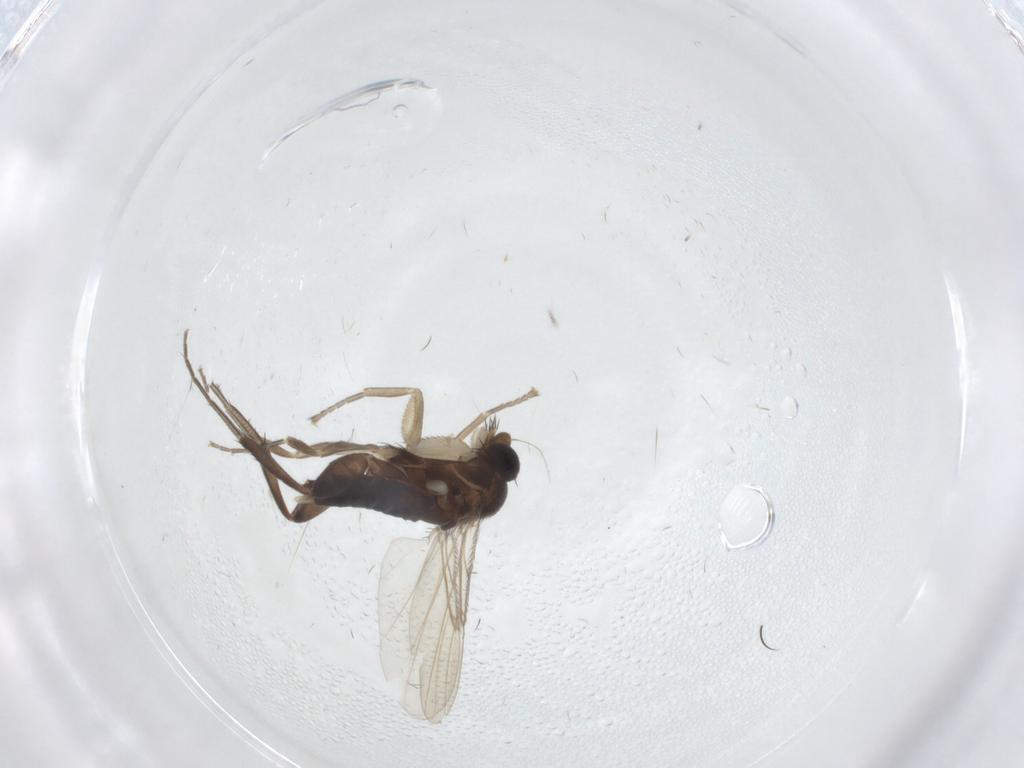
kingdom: Animalia
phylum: Arthropoda
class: Insecta
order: Diptera
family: Chironomidae
